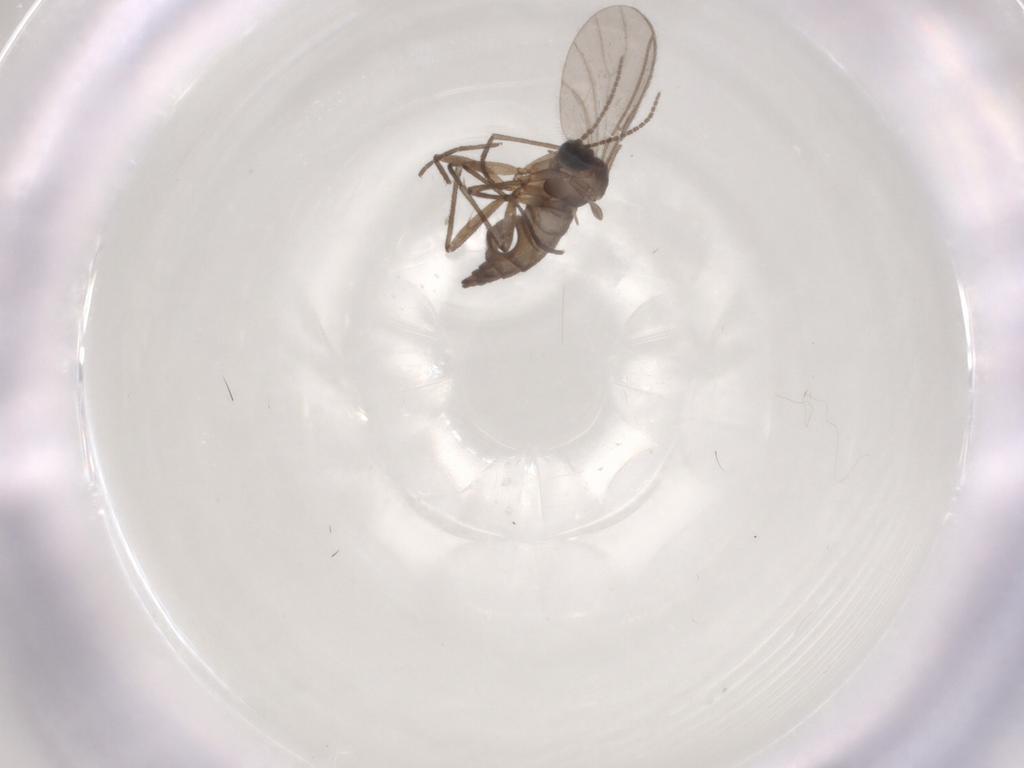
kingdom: Animalia
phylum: Arthropoda
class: Insecta
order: Diptera
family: Sciaridae
